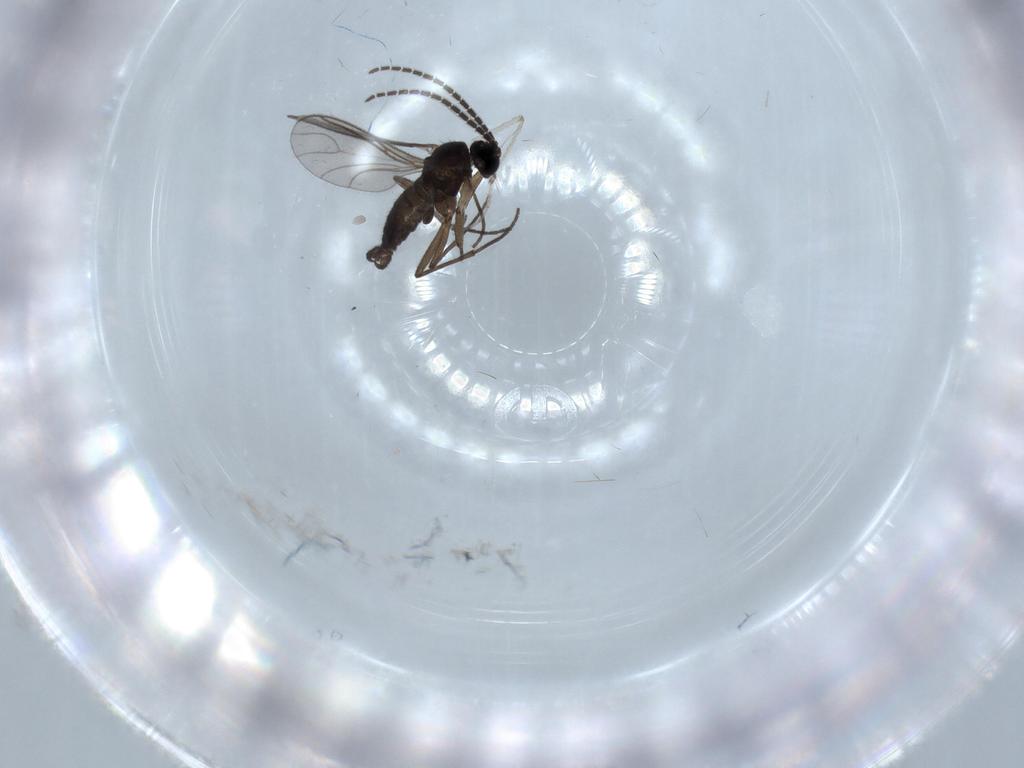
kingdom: Animalia
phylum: Arthropoda
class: Insecta
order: Diptera
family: Sciaridae
